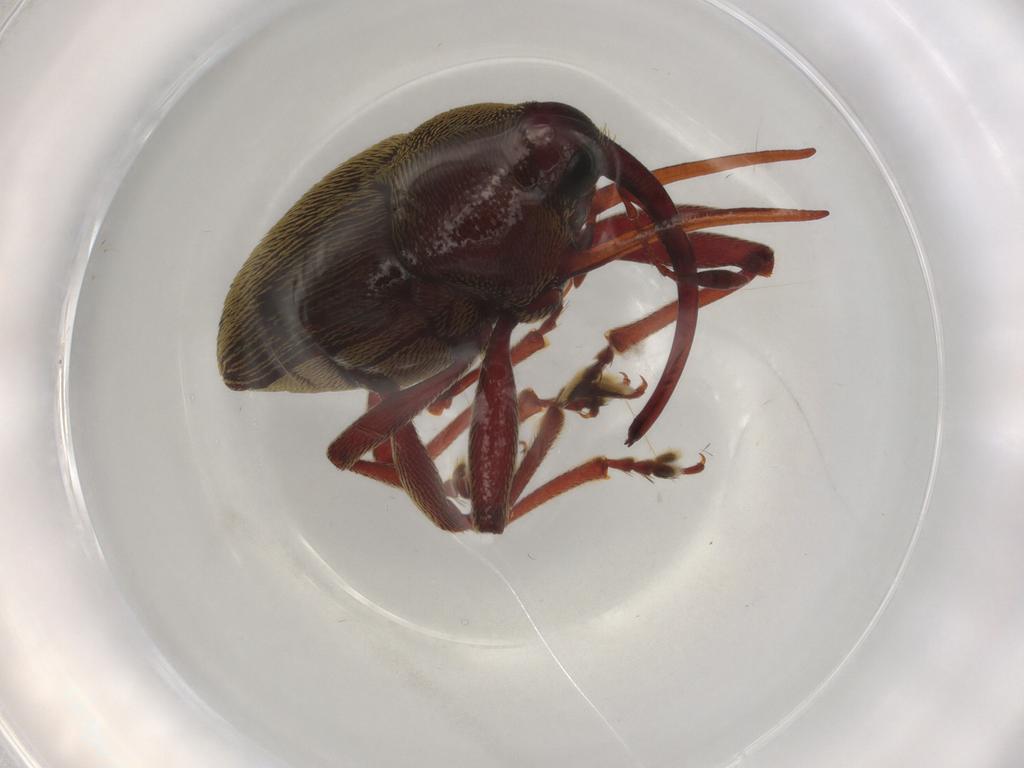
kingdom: Animalia
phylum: Arthropoda
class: Insecta
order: Coleoptera
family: Curculionidae
